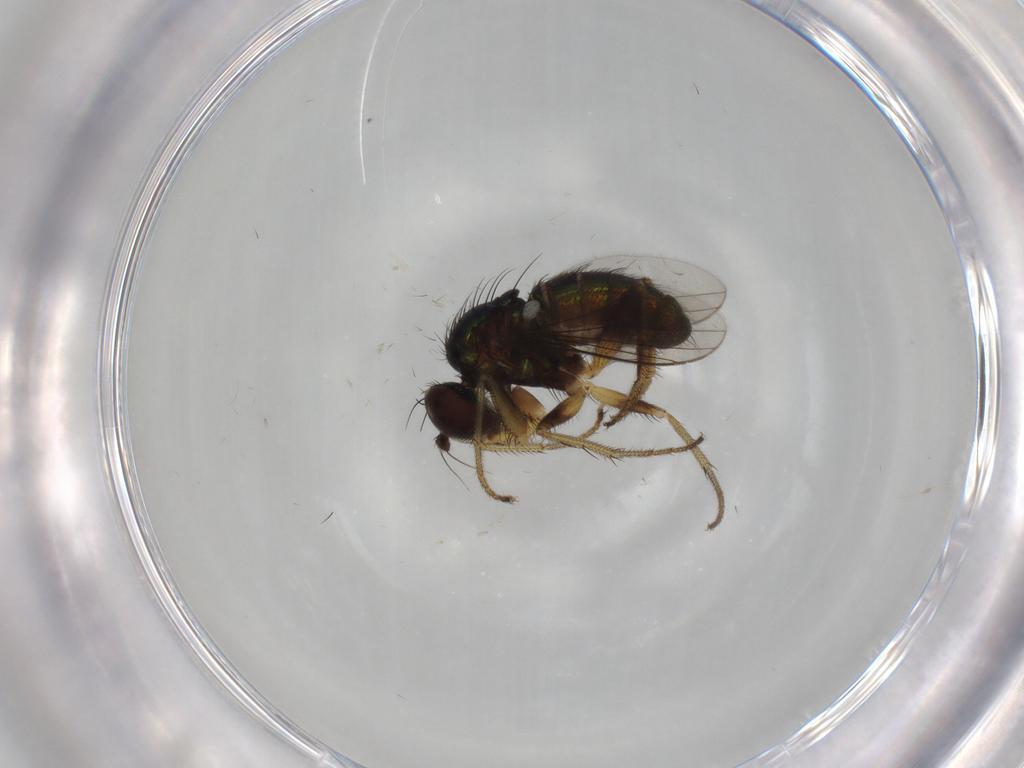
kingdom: Animalia
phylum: Arthropoda
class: Insecta
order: Diptera
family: Dolichopodidae
